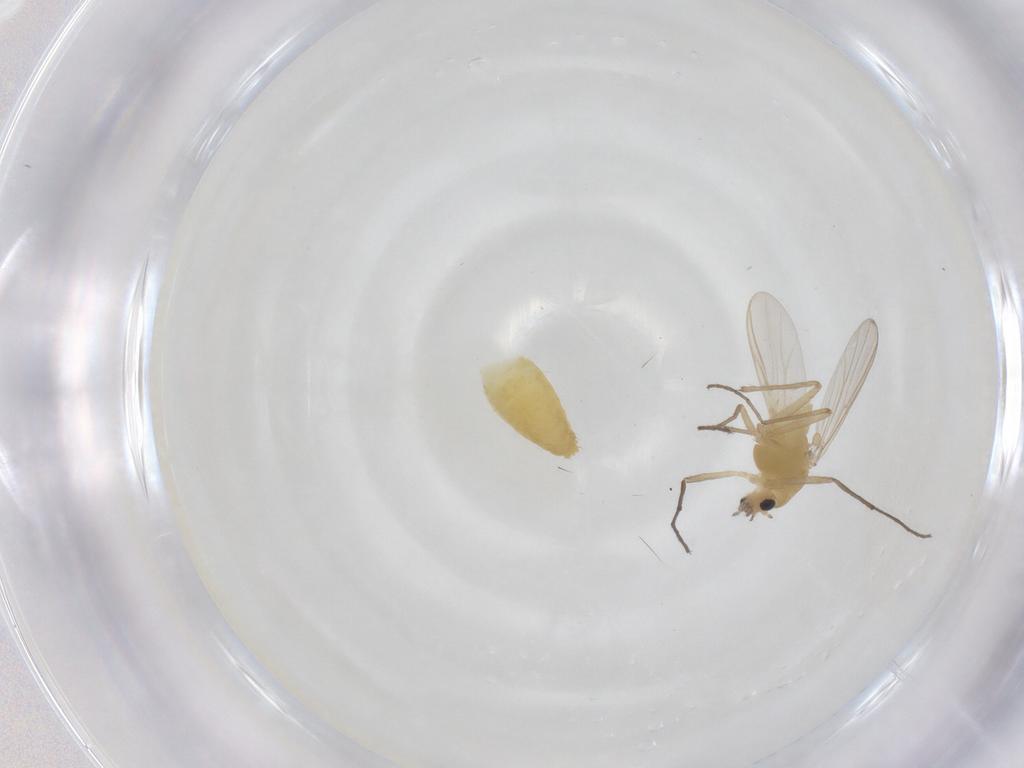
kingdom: Animalia
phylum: Arthropoda
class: Insecta
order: Diptera
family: Chironomidae
